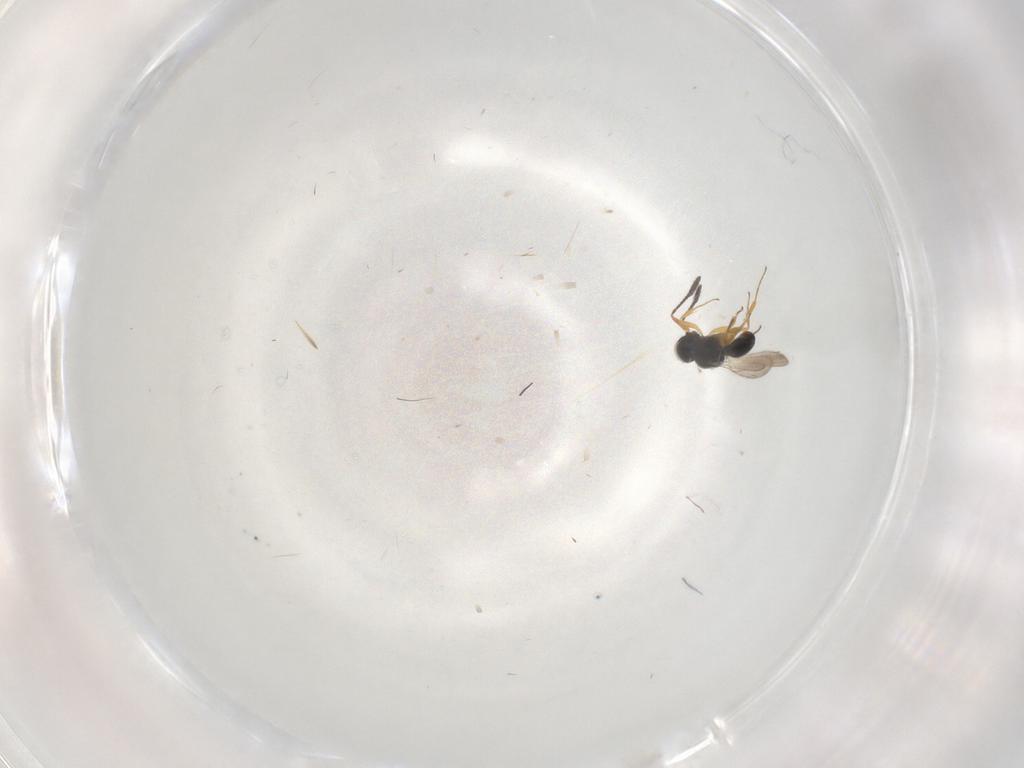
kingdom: Animalia
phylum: Arthropoda
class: Insecta
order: Hymenoptera
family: Scelionidae
